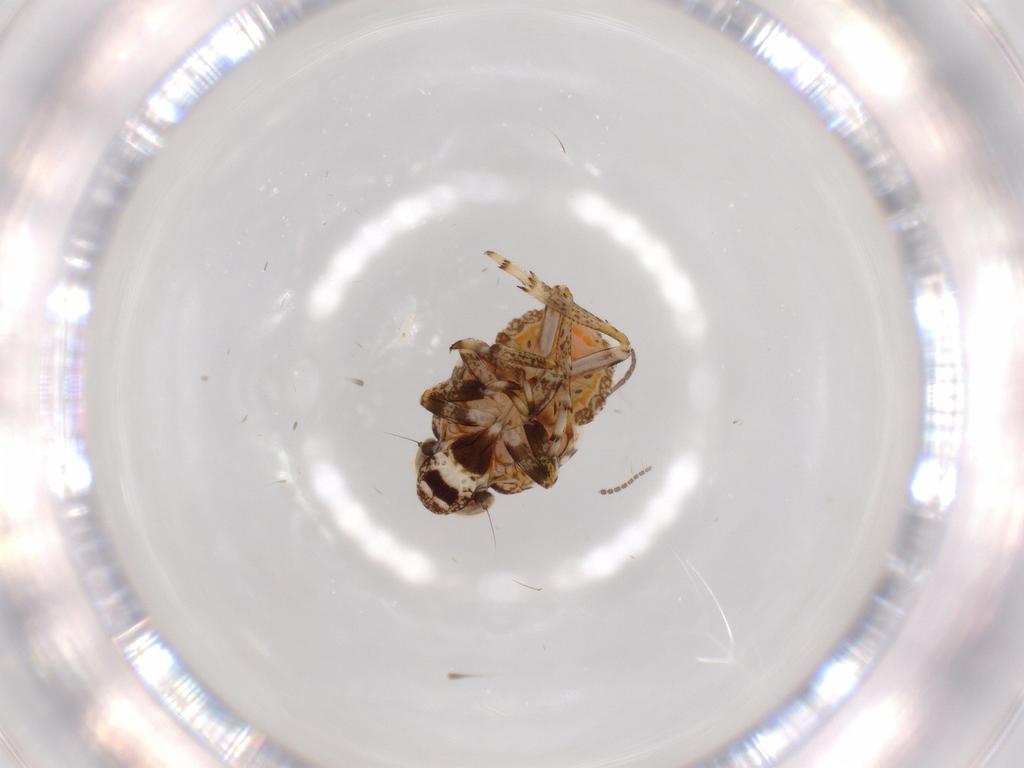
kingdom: Animalia
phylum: Arthropoda
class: Insecta
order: Hemiptera
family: Issidae
